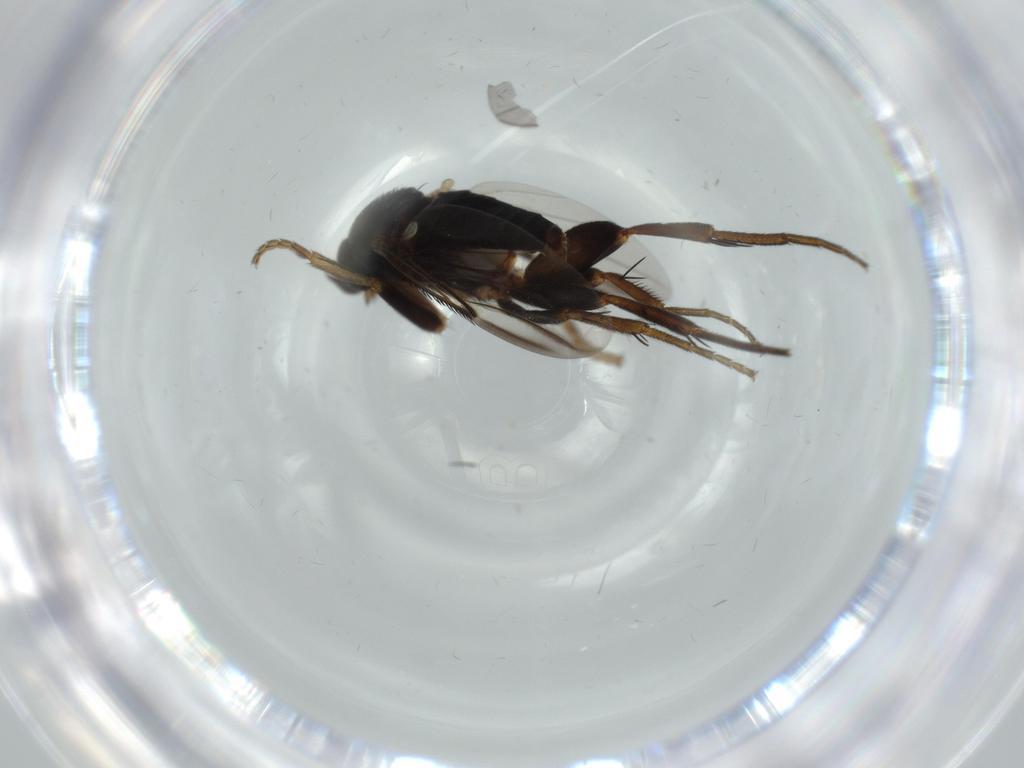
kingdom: Animalia
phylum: Arthropoda
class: Insecta
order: Diptera
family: Phoridae
